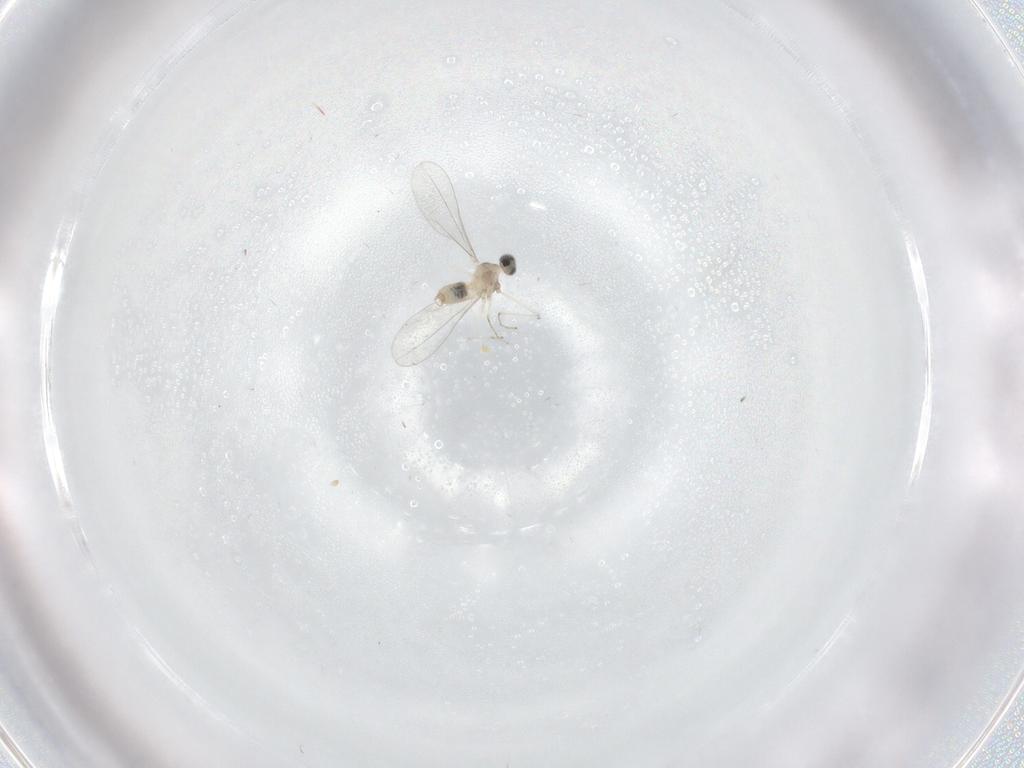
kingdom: Animalia
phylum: Arthropoda
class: Insecta
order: Diptera
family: Cecidomyiidae
